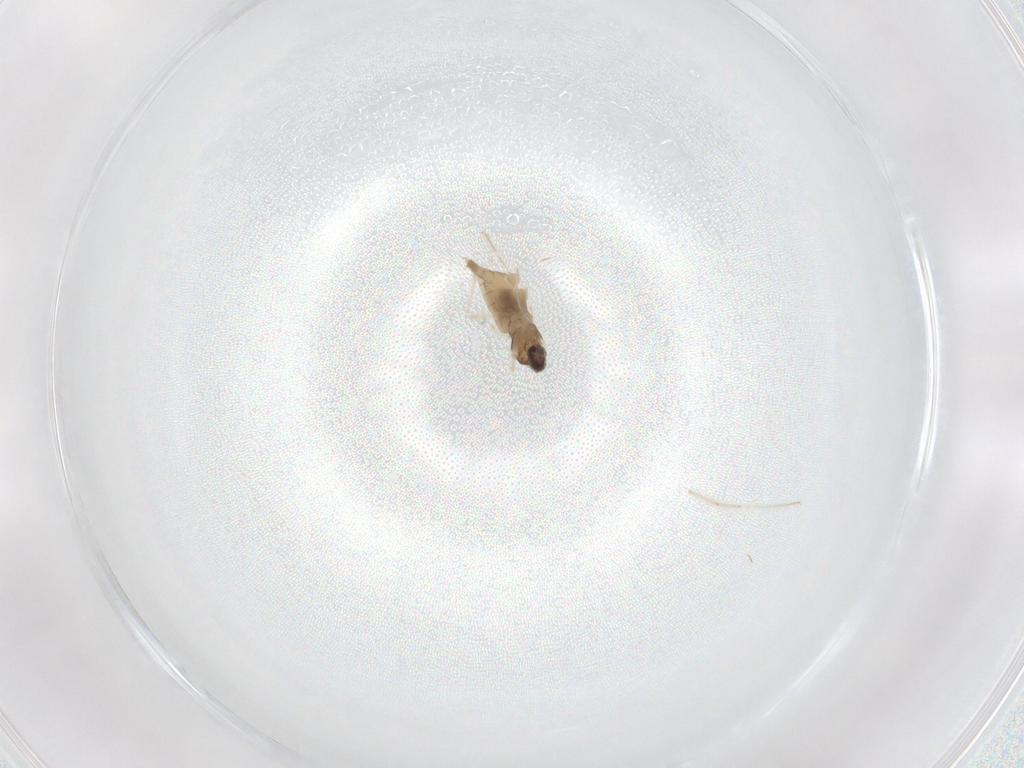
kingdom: Animalia
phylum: Arthropoda
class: Insecta
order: Diptera
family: Cecidomyiidae
